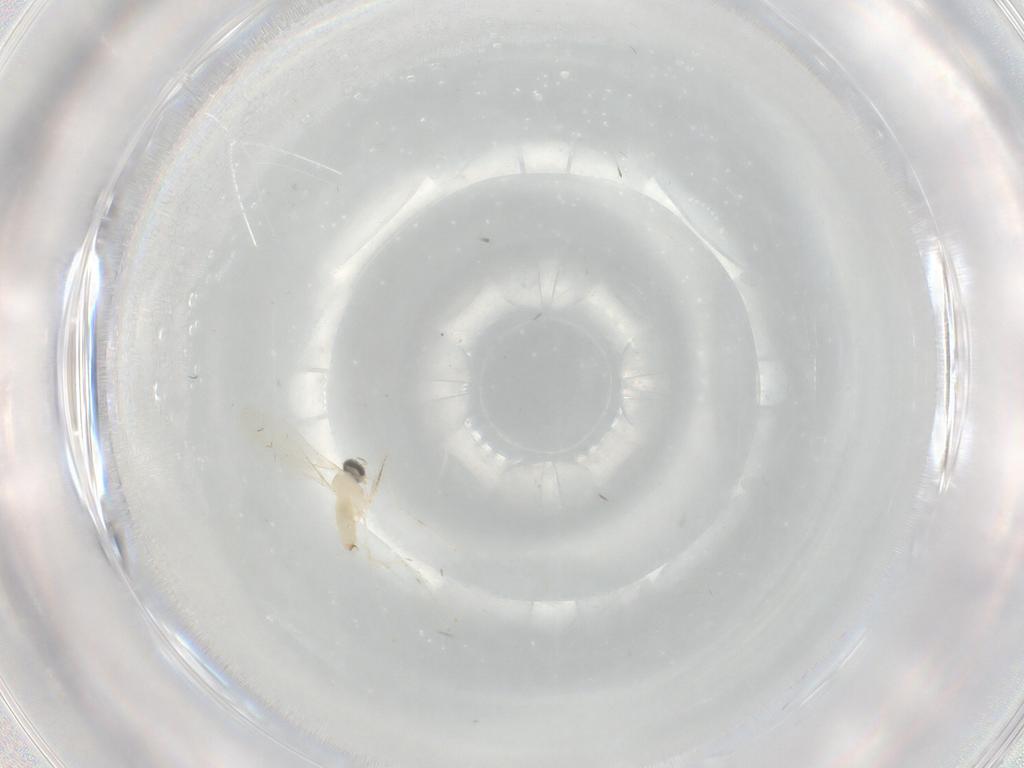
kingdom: Animalia
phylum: Arthropoda
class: Insecta
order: Diptera
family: Cecidomyiidae
